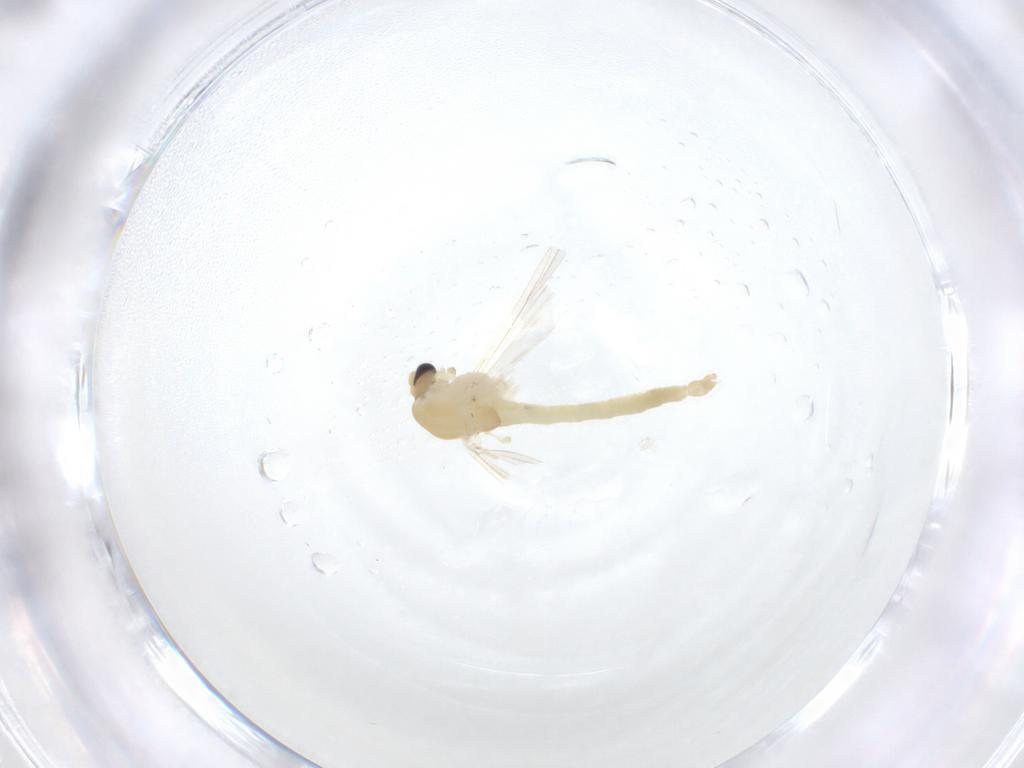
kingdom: Animalia
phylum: Arthropoda
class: Insecta
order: Diptera
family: Chironomidae
